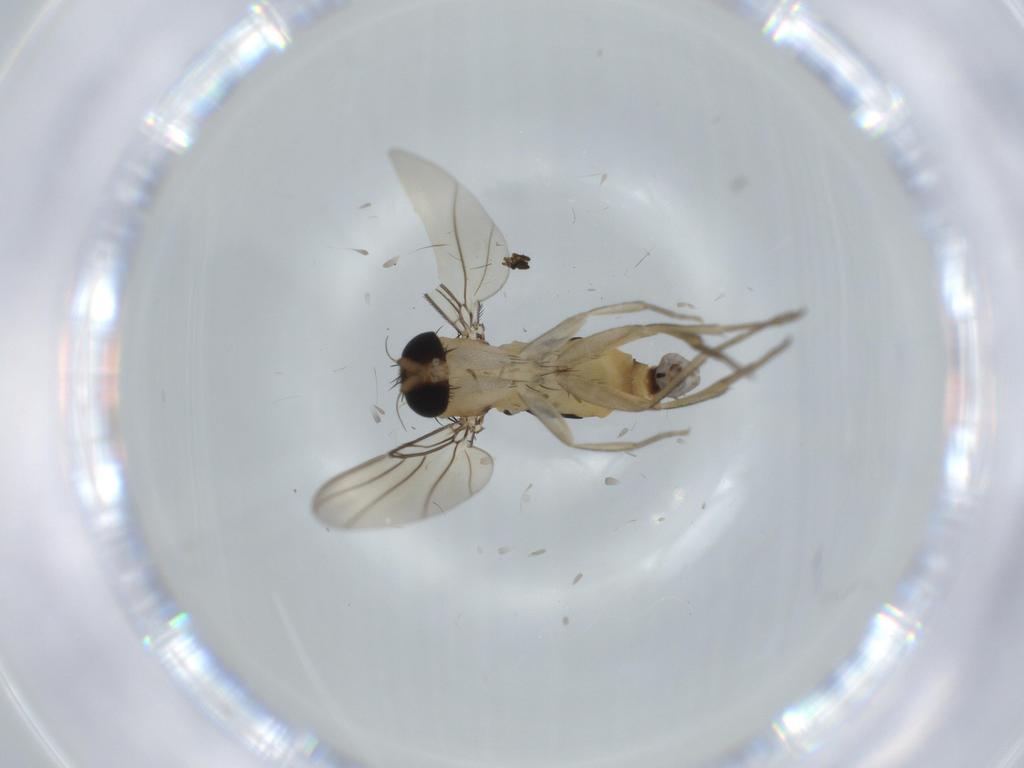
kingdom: Animalia
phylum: Arthropoda
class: Insecta
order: Diptera
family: Phoridae
